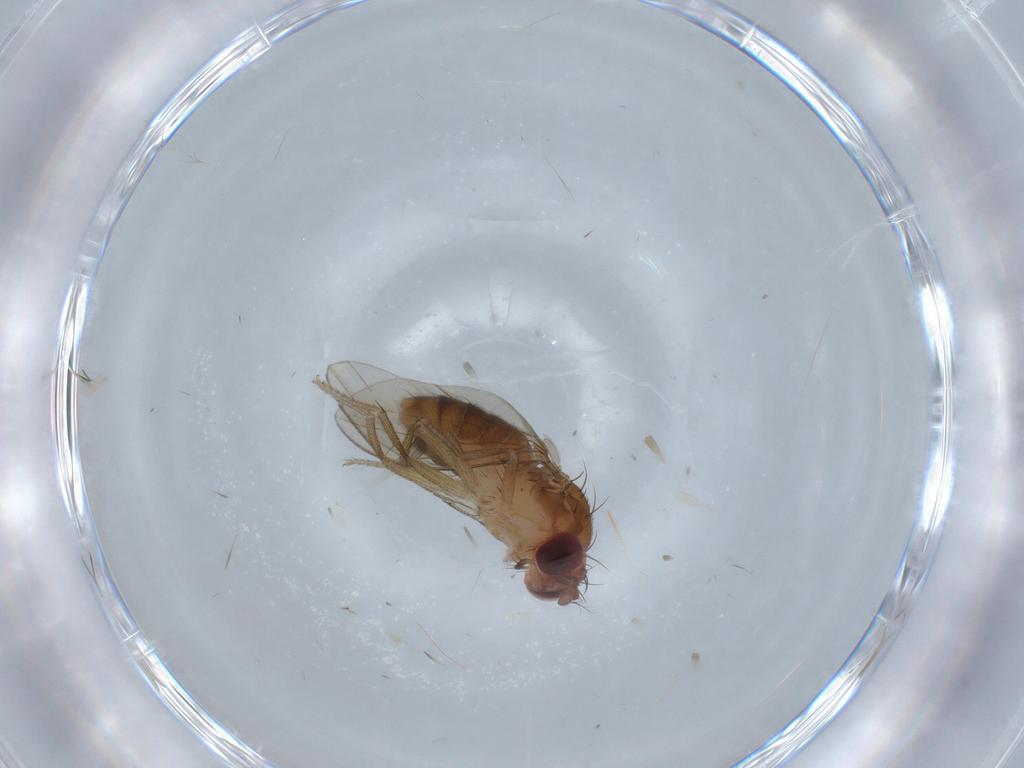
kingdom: Animalia
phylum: Arthropoda
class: Insecta
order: Diptera
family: Drosophilidae
